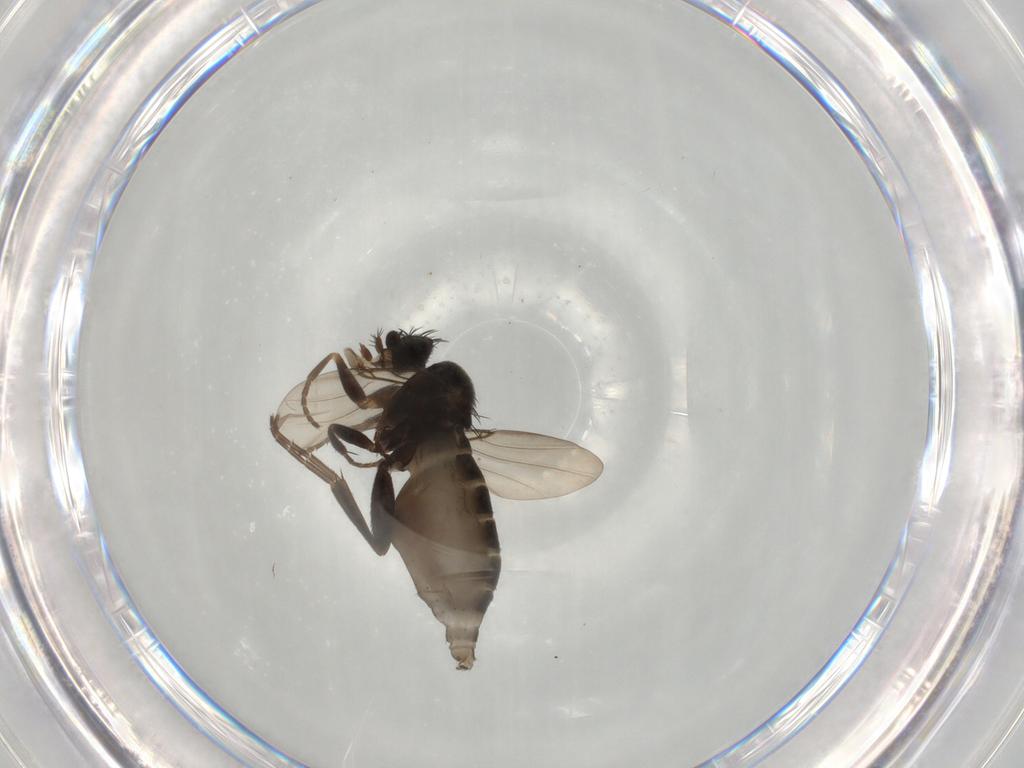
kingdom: Animalia
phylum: Arthropoda
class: Insecta
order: Diptera
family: Phoridae
